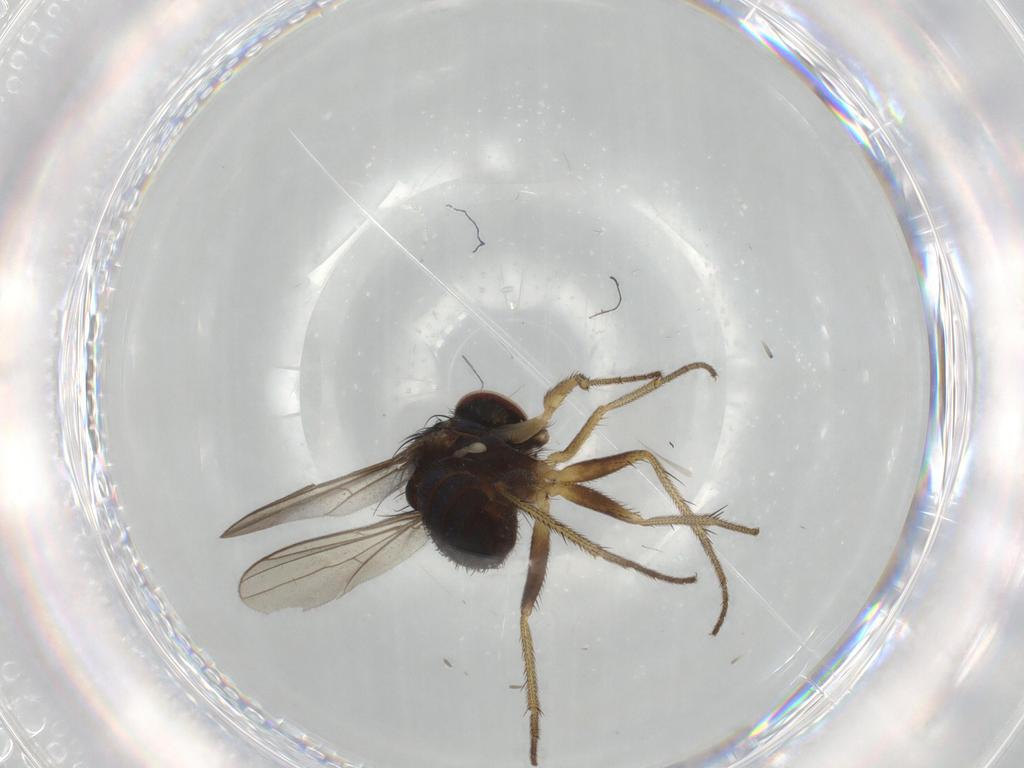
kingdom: Animalia
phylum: Arthropoda
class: Insecta
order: Diptera
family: Dolichopodidae
